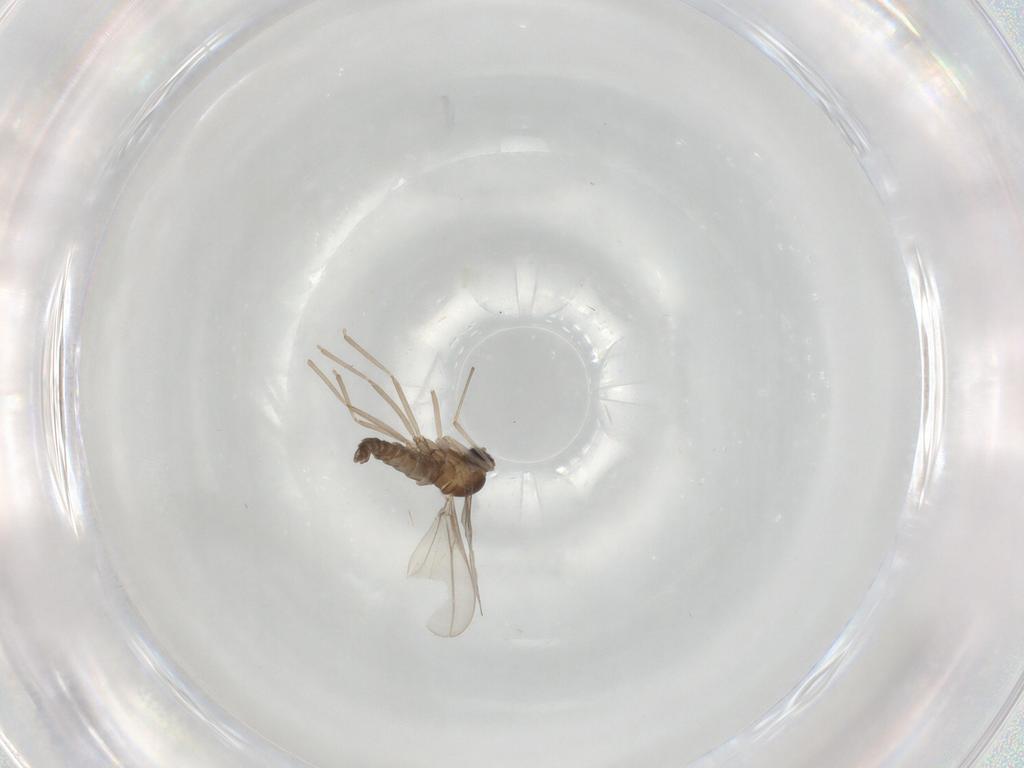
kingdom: Animalia
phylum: Arthropoda
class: Insecta
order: Diptera
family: Cecidomyiidae
